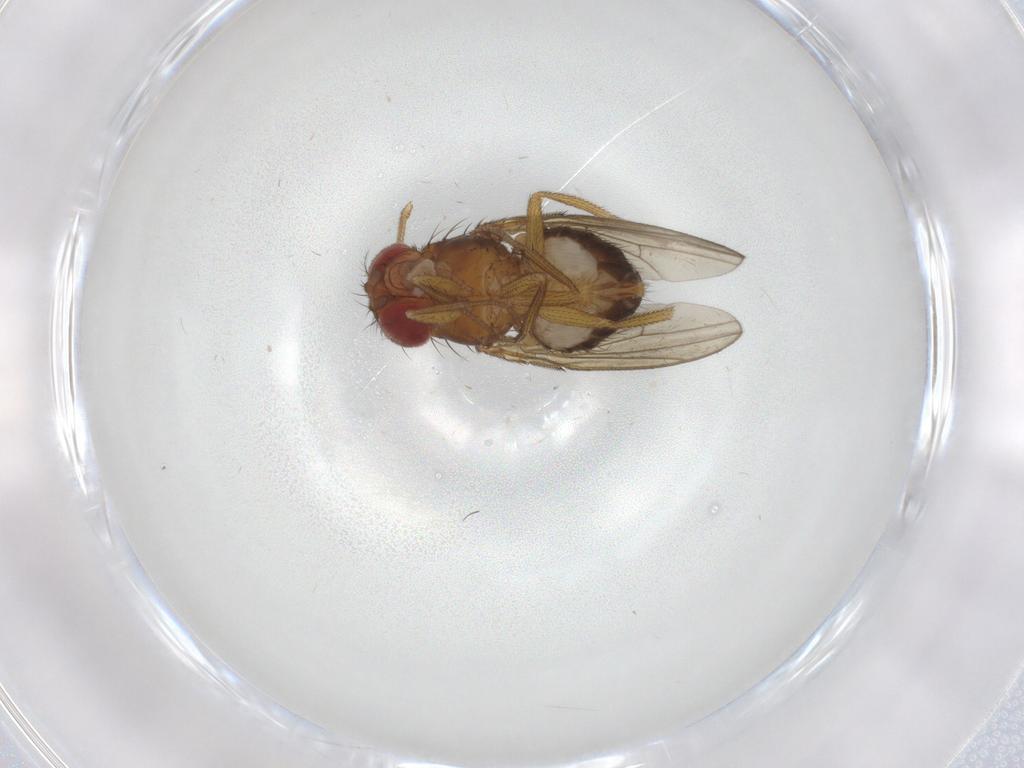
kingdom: Animalia
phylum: Arthropoda
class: Insecta
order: Diptera
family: Drosophilidae
